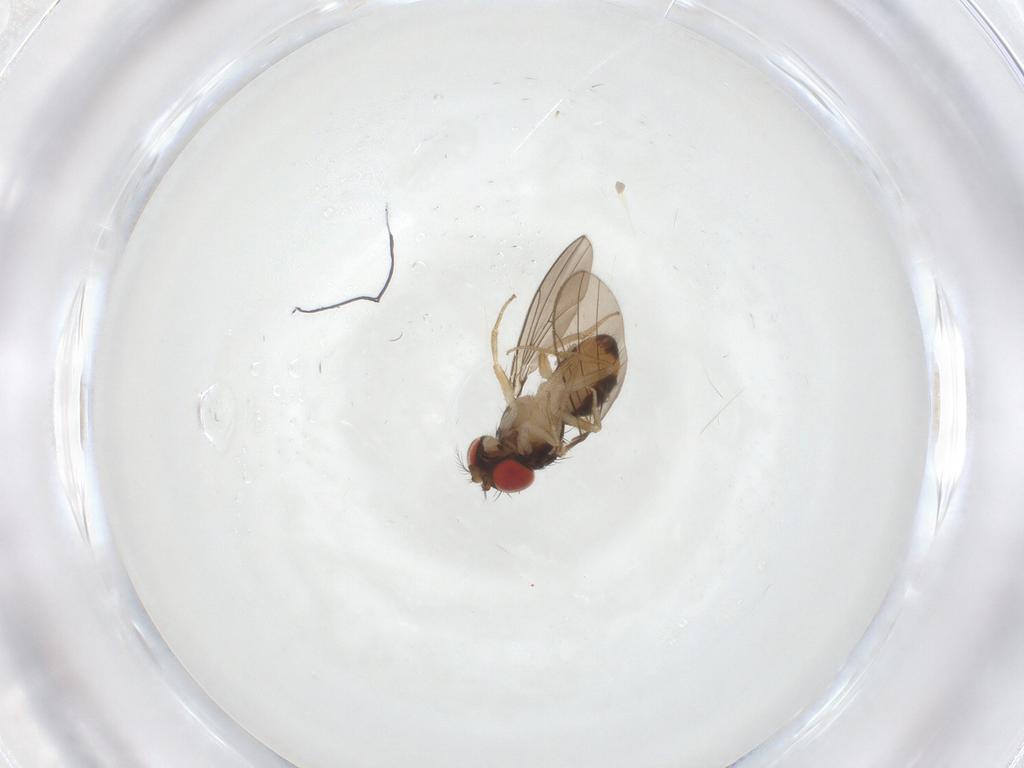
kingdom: Animalia
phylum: Arthropoda
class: Insecta
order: Diptera
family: Drosophilidae
